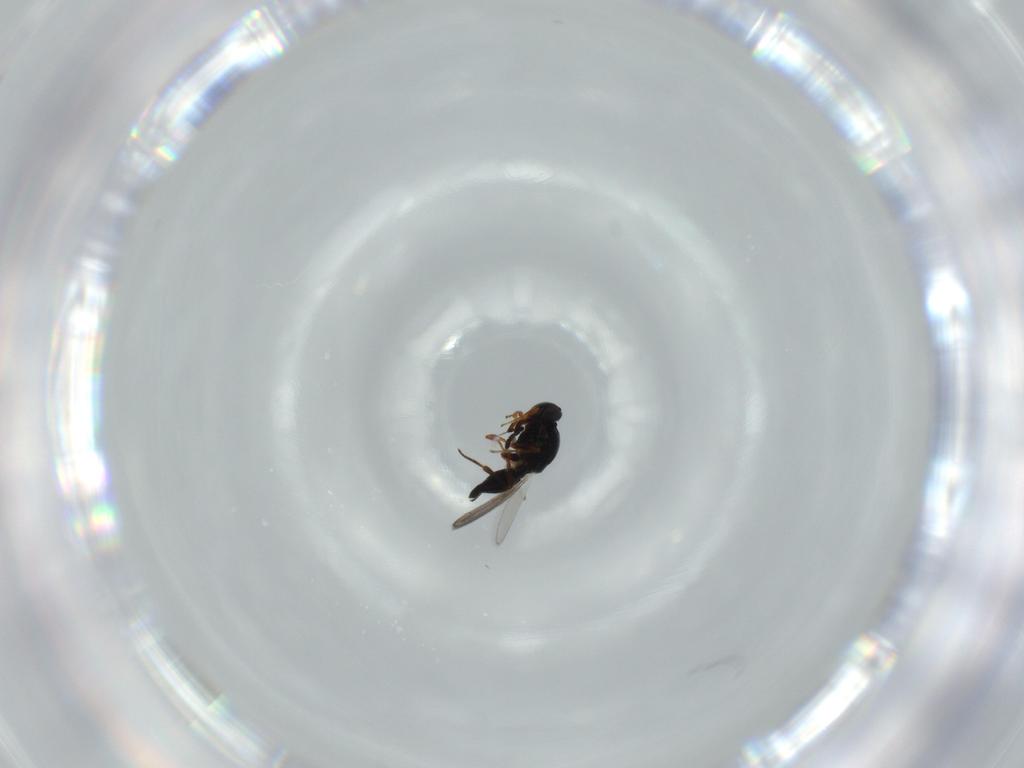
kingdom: Animalia
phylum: Arthropoda
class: Insecta
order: Hymenoptera
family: Platygastridae
